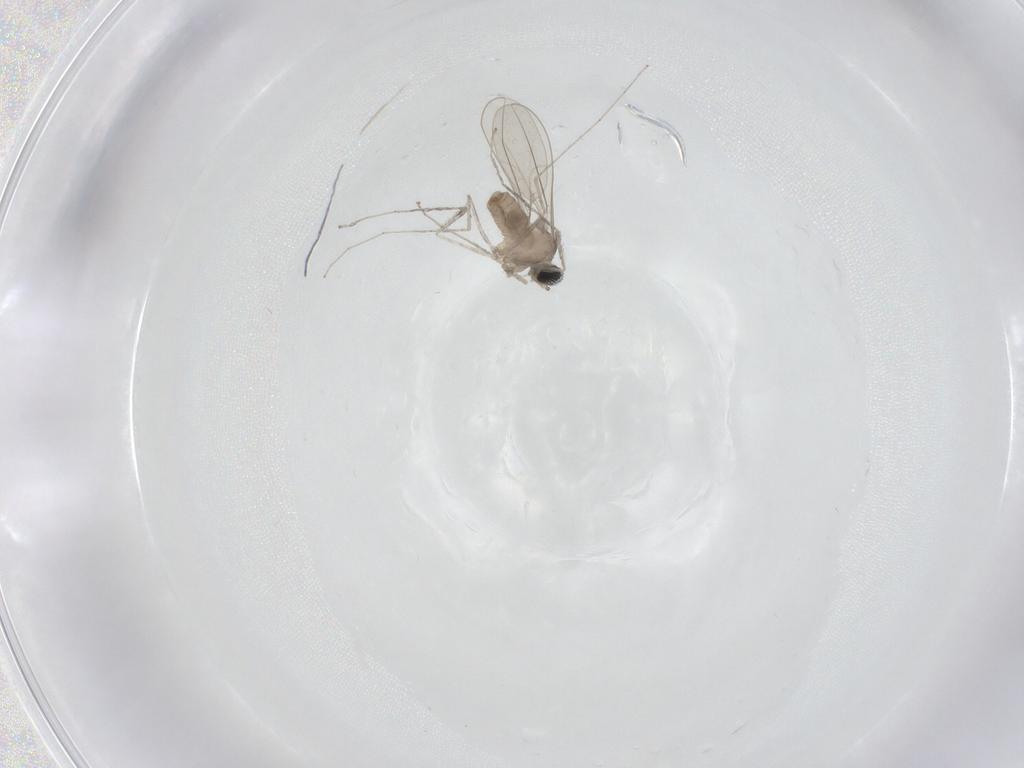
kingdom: Animalia
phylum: Arthropoda
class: Insecta
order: Diptera
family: Cecidomyiidae
